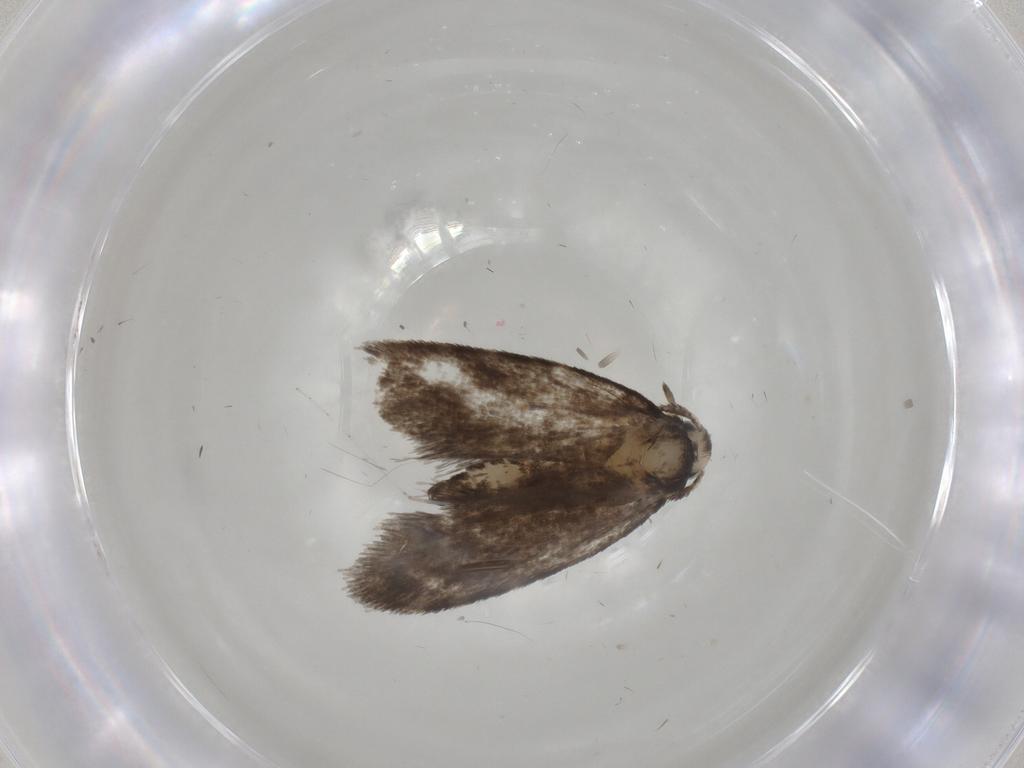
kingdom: Animalia
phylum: Arthropoda
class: Insecta
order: Lepidoptera
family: Psychidae
